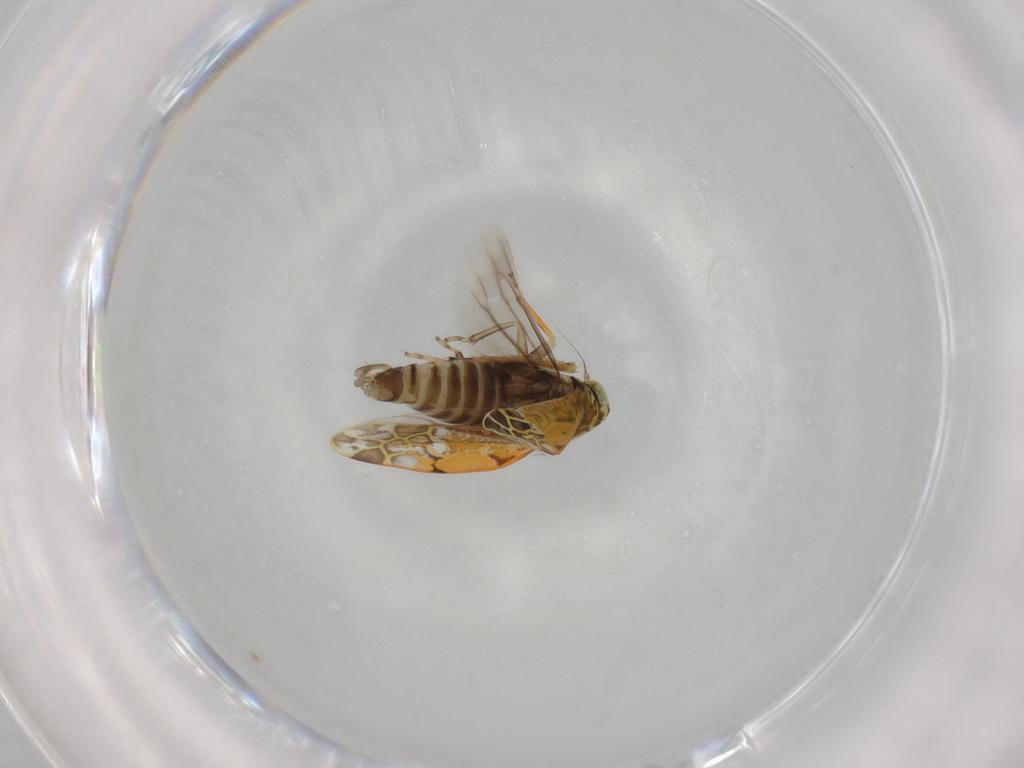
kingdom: Animalia
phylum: Arthropoda
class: Insecta
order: Hemiptera
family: Cicadellidae
